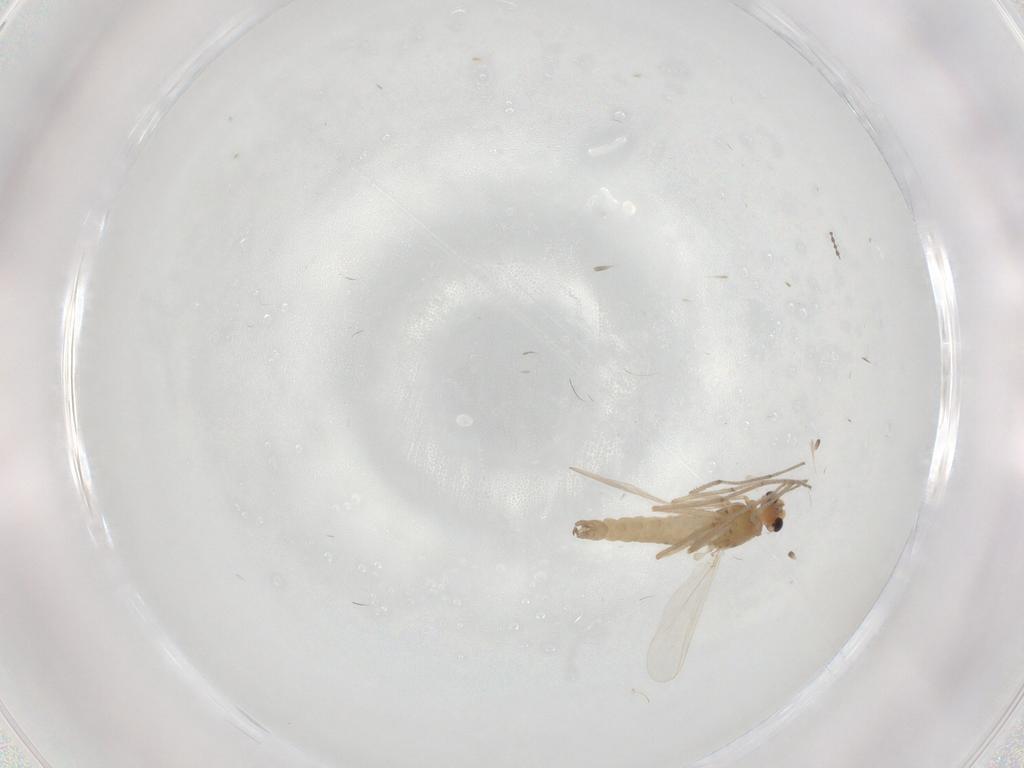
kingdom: Animalia
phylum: Arthropoda
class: Insecta
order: Diptera
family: Chironomidae
